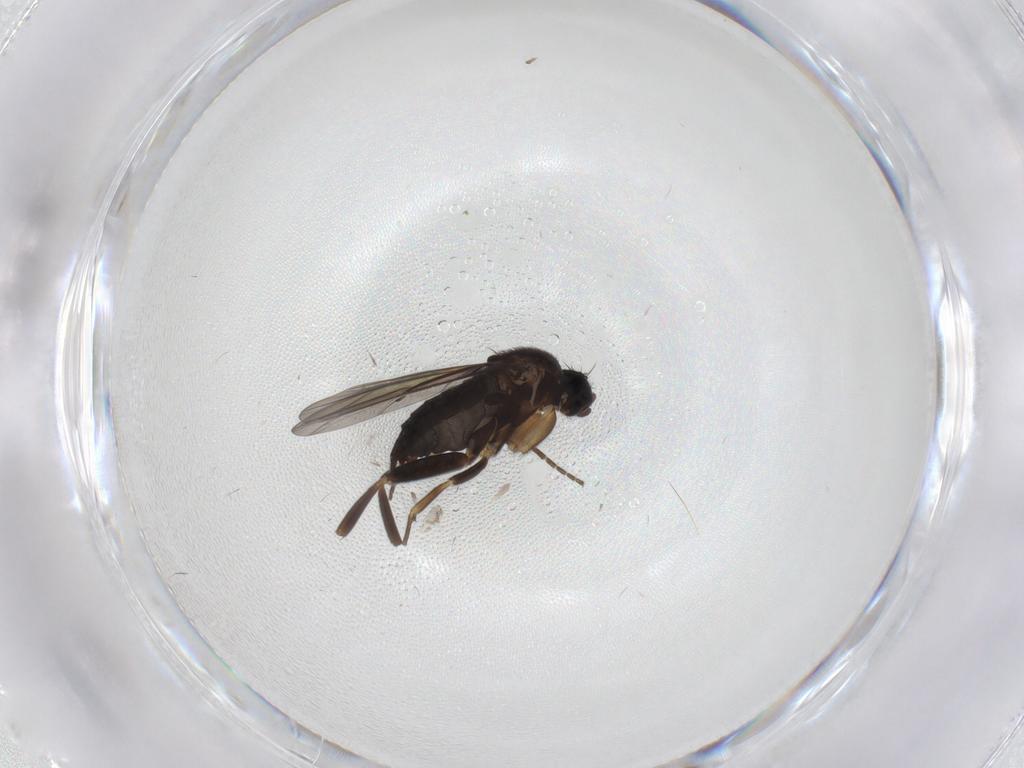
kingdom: Animalia
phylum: Arthropoda
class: Insecta
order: Diptera
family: Phoridae
